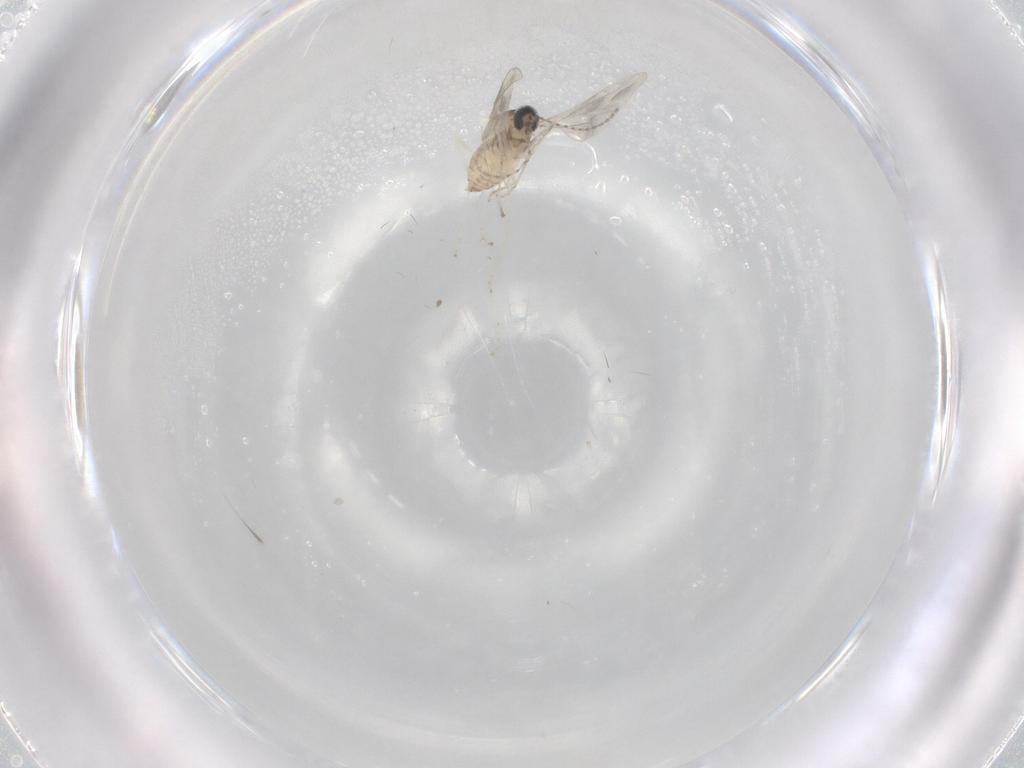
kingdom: Animalia
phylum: Arthropoda
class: Insecta
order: Diptera
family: Cecidomyiidae
